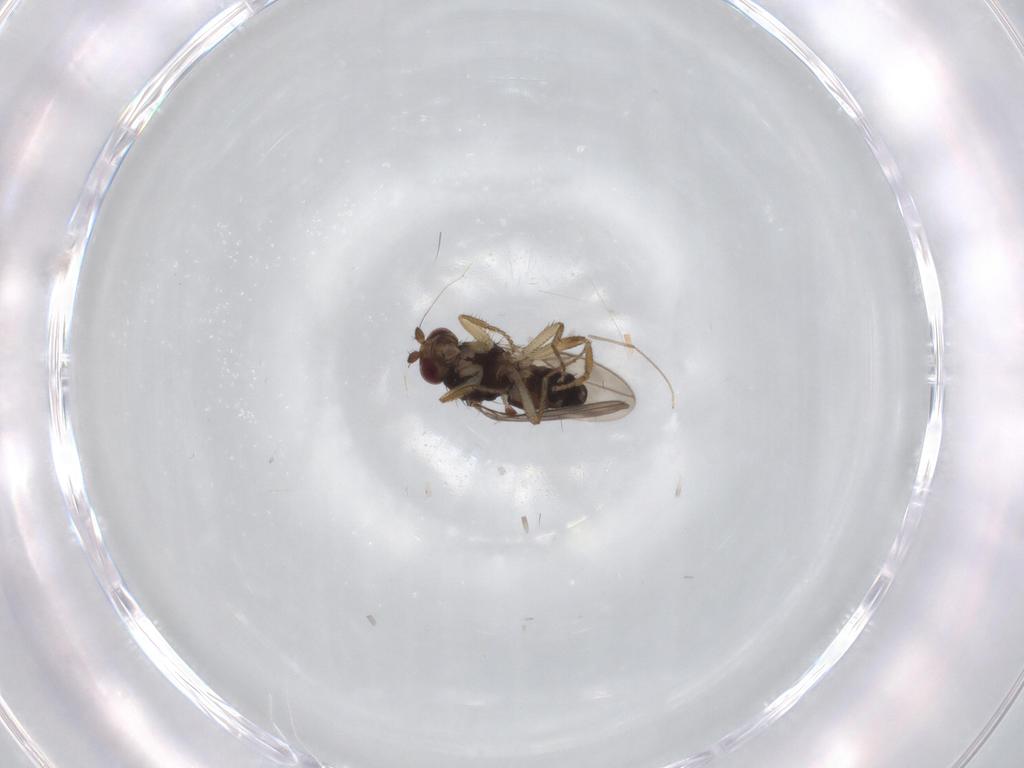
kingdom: Animalia
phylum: Arthropoda
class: Insecta
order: Diptera
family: Sphaeroceridae
